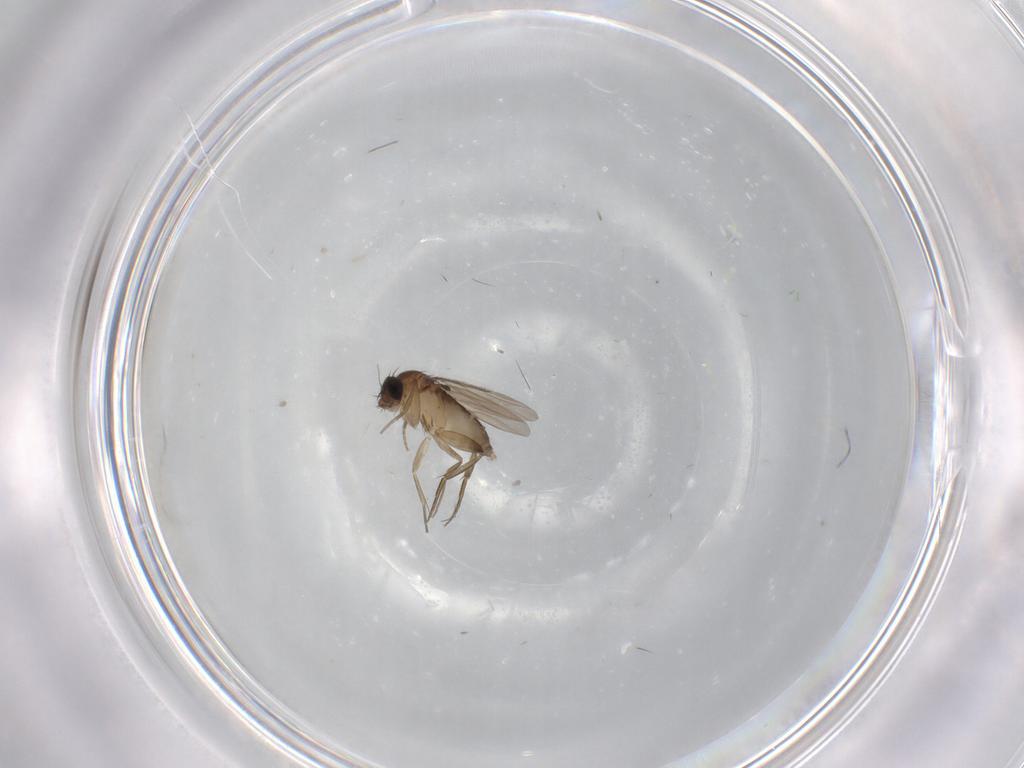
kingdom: Animalia
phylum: Arthropoda
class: Insecta
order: Diptera
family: Phoridae
